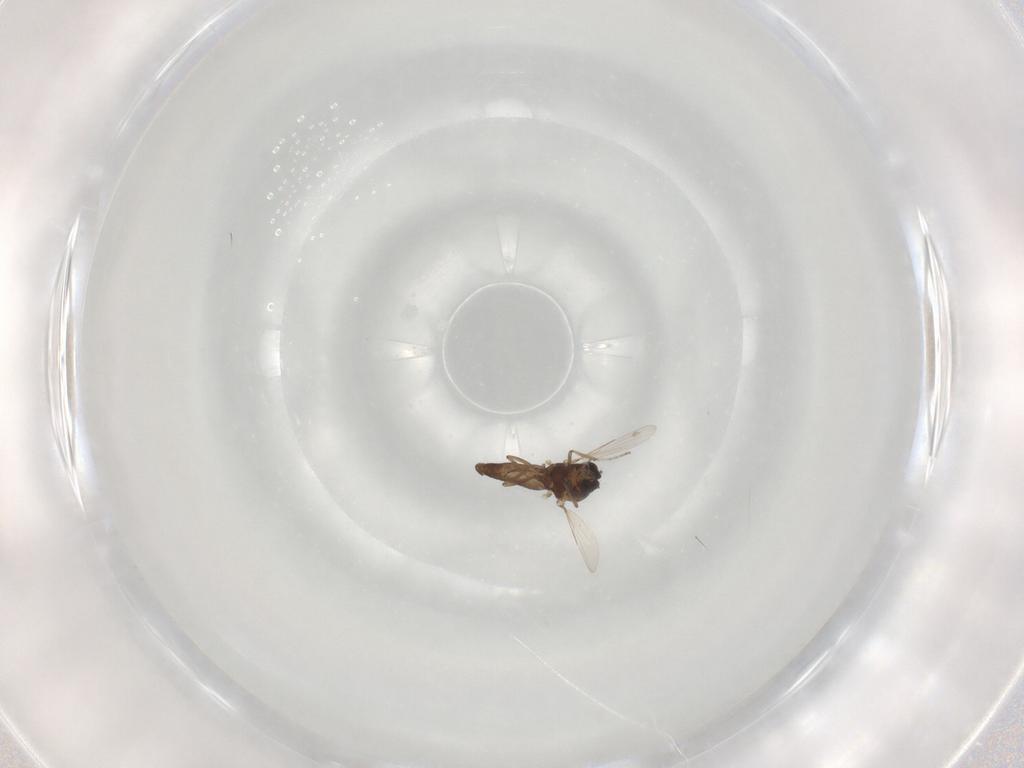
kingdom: Animalia
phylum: Arthropoda
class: Insecta
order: Diptera
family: Ceratopogonidae
